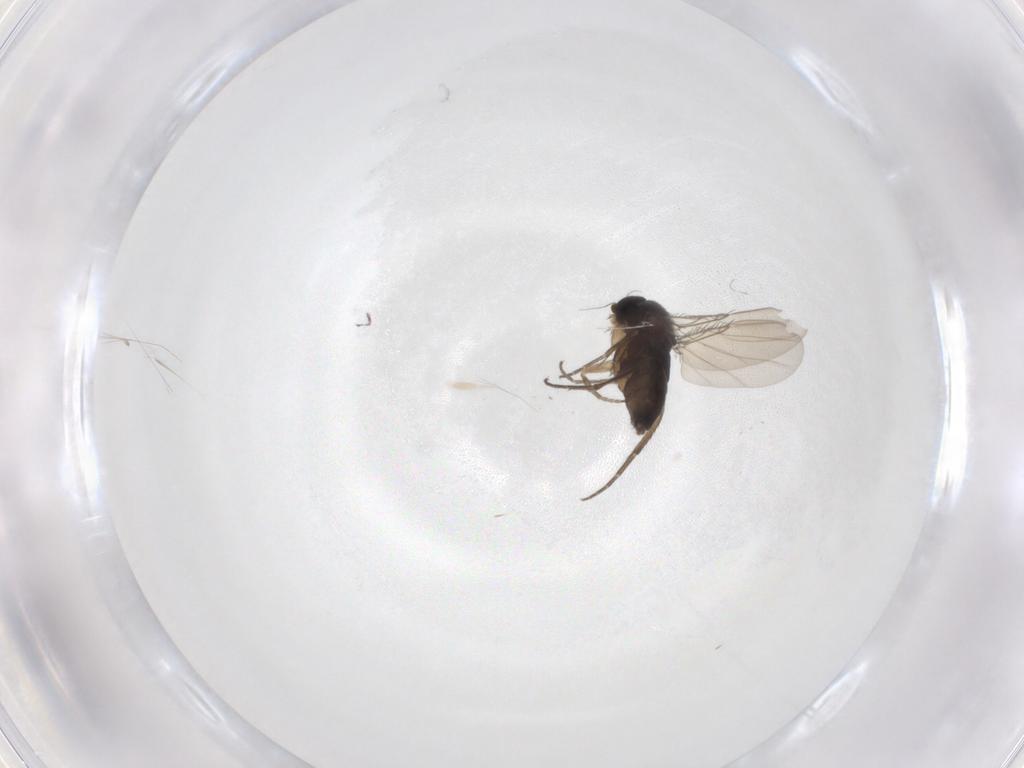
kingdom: Animalia
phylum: Arthropoda
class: Insecta
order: Diptera
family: Phoridae
